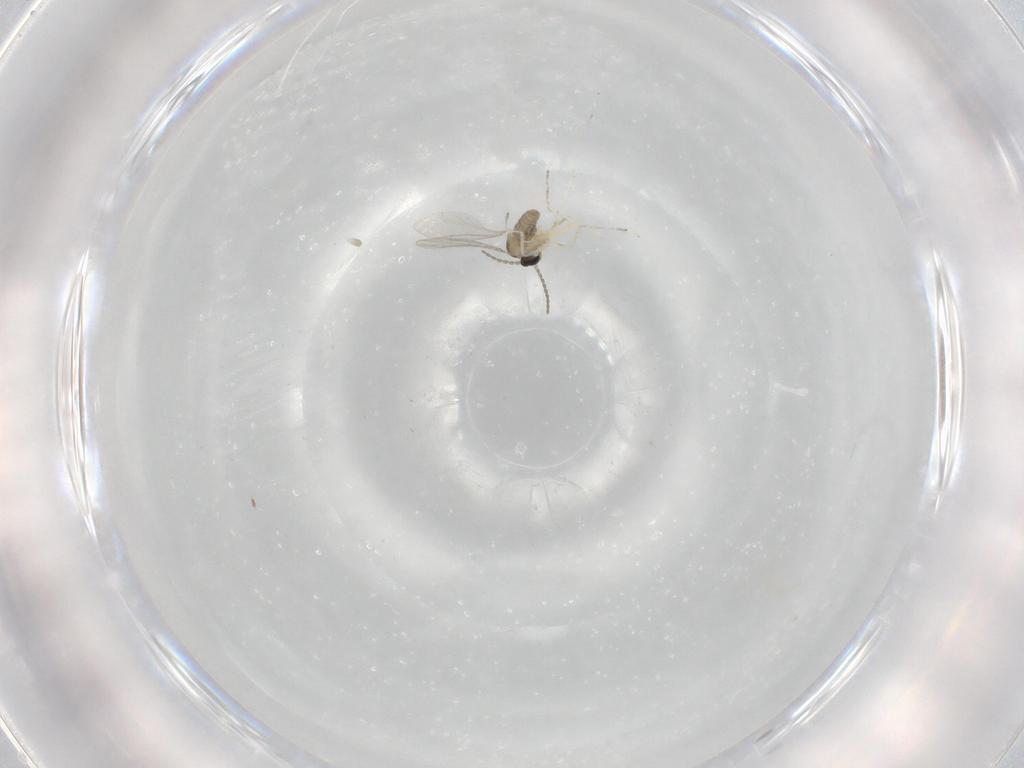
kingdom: Animalia
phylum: Arthropoda
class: Insecta
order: Diptera
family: Cecidomyiidae
